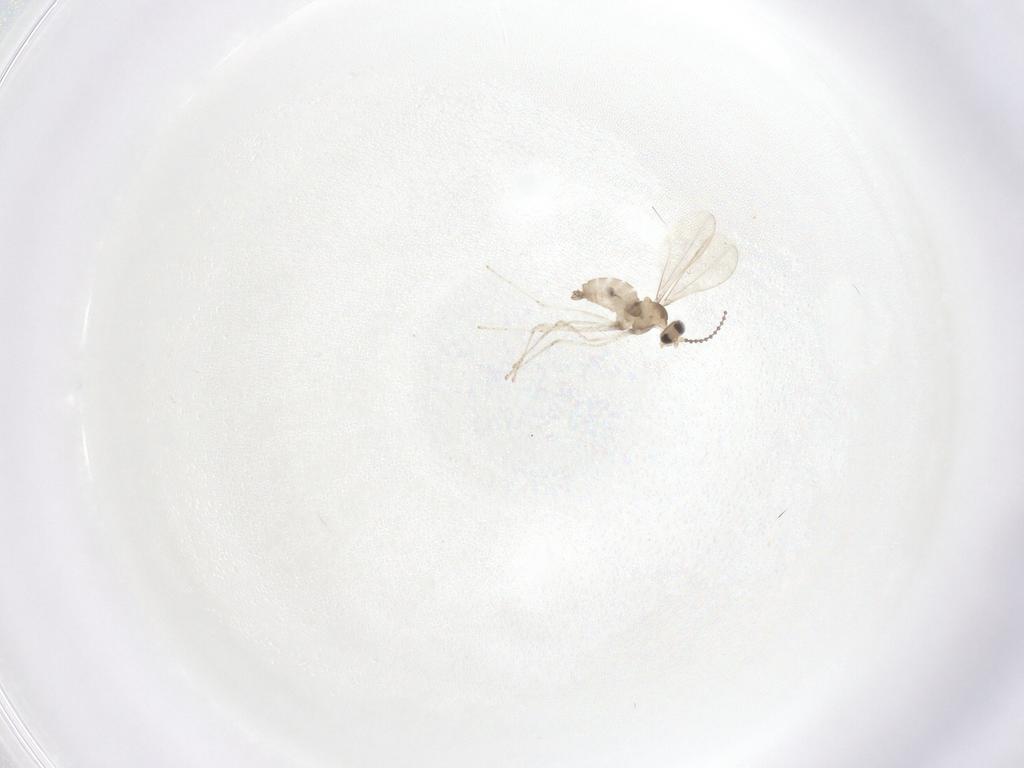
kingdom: Animalia
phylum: Arthropoda
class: Insecta
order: Diptera
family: Cecidomyiidae
